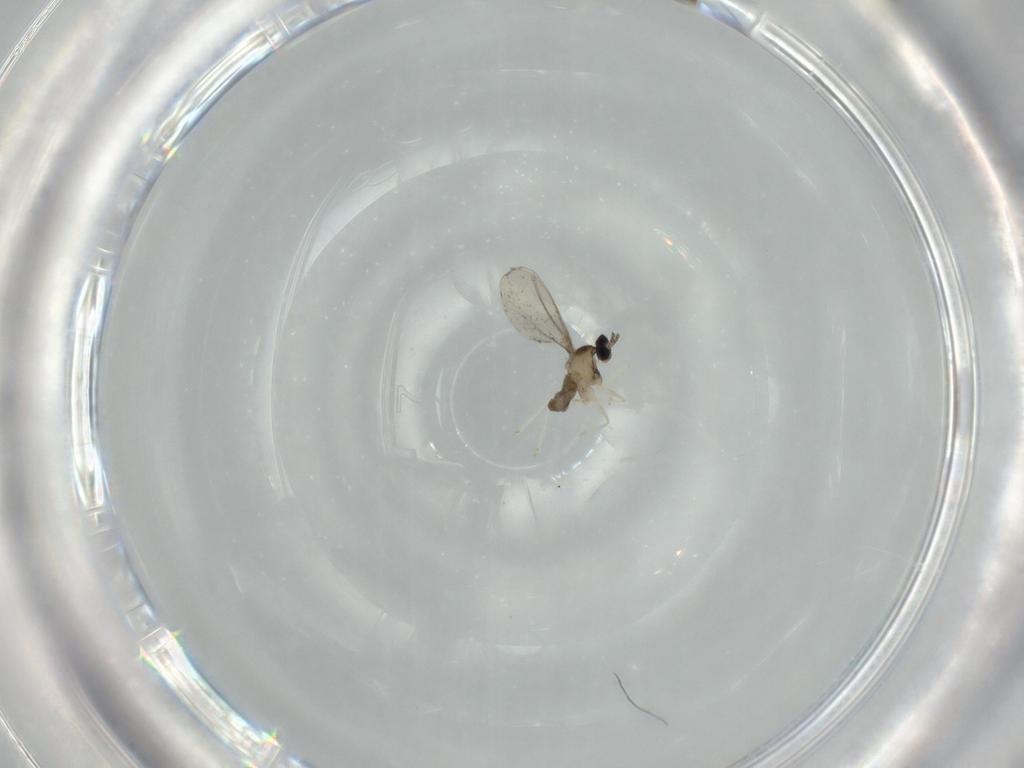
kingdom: Animalia
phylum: Arthropoda
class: Insecta
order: Diptera
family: Cecidomyiidae
